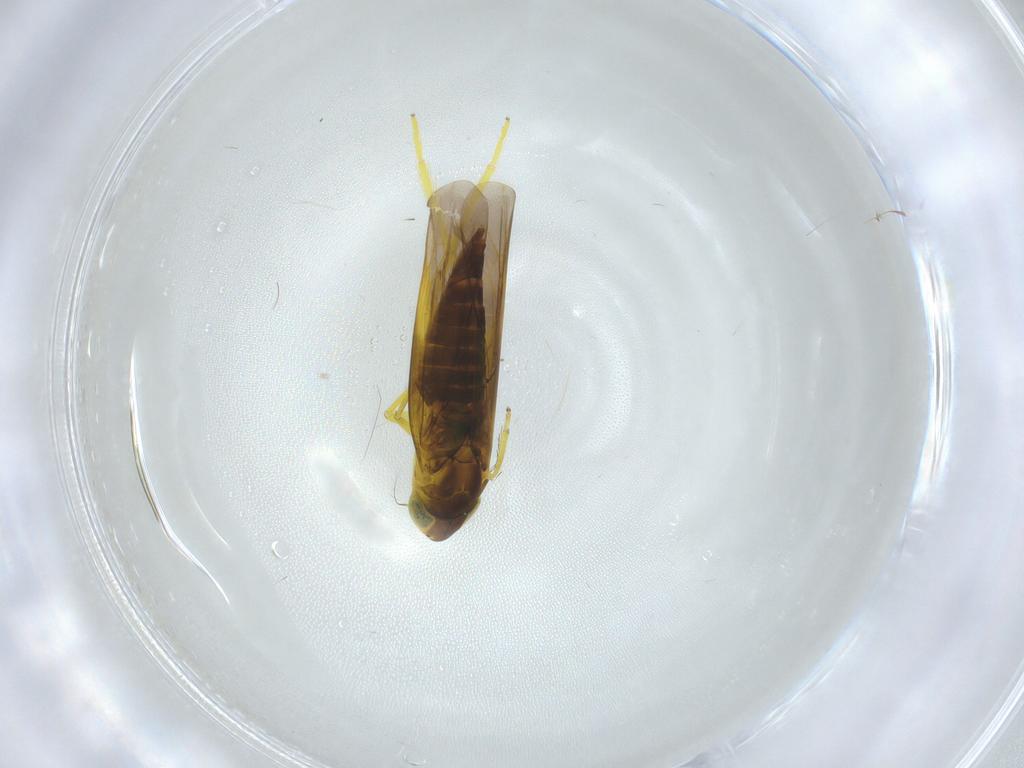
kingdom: Animalia
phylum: Arthropoda
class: Insecta
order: Hemiptera
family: Cicadellidae
